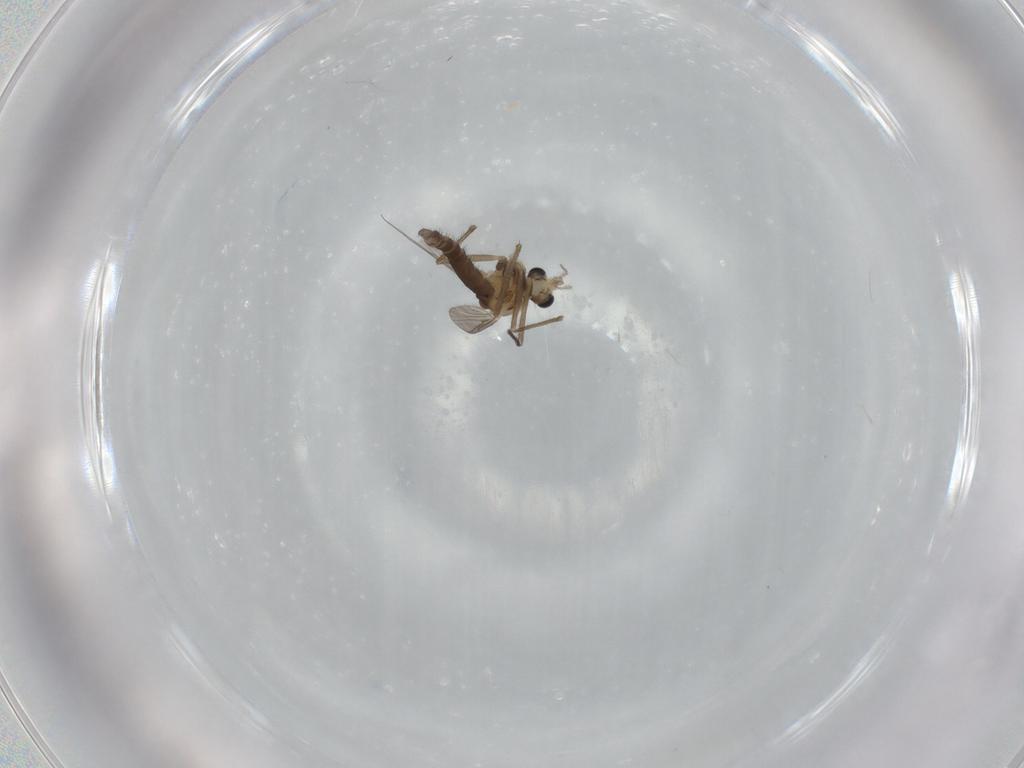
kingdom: Animalia
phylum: Arthropoda
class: Insecta
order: Diptera
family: Chironomidae
